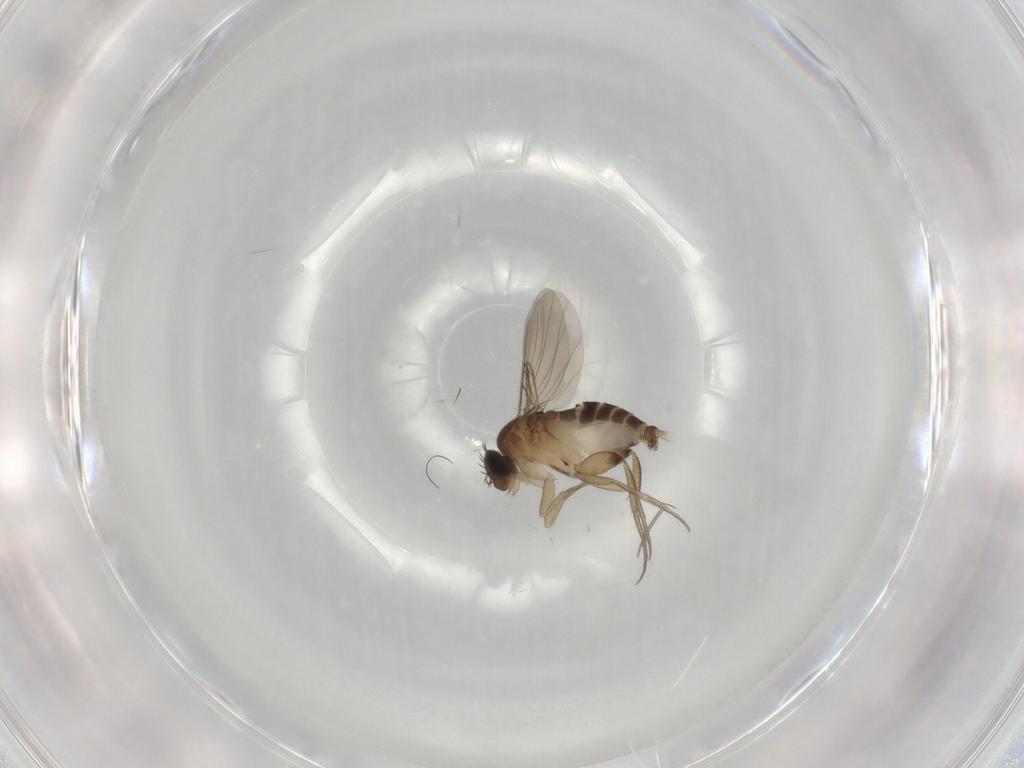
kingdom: Animalia
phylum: Arthropoda
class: Insecta
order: Diptera
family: Phoridae
